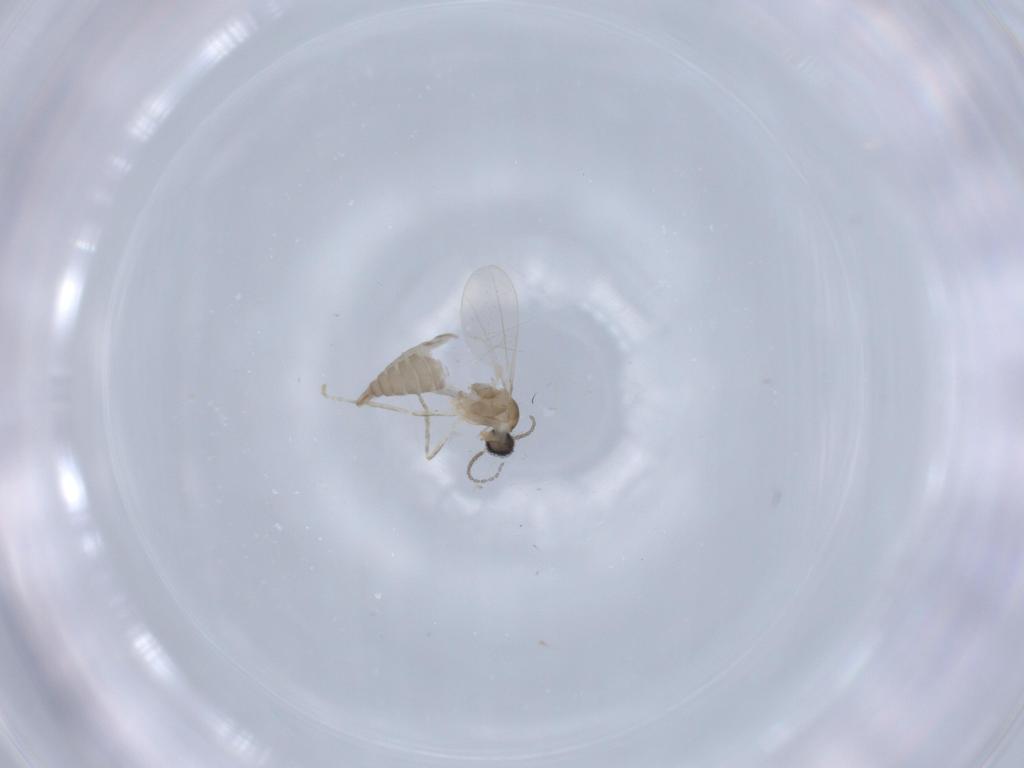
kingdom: Animalia
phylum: Arthropoda
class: Insecta
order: Diptera
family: Cecidomyiidae
